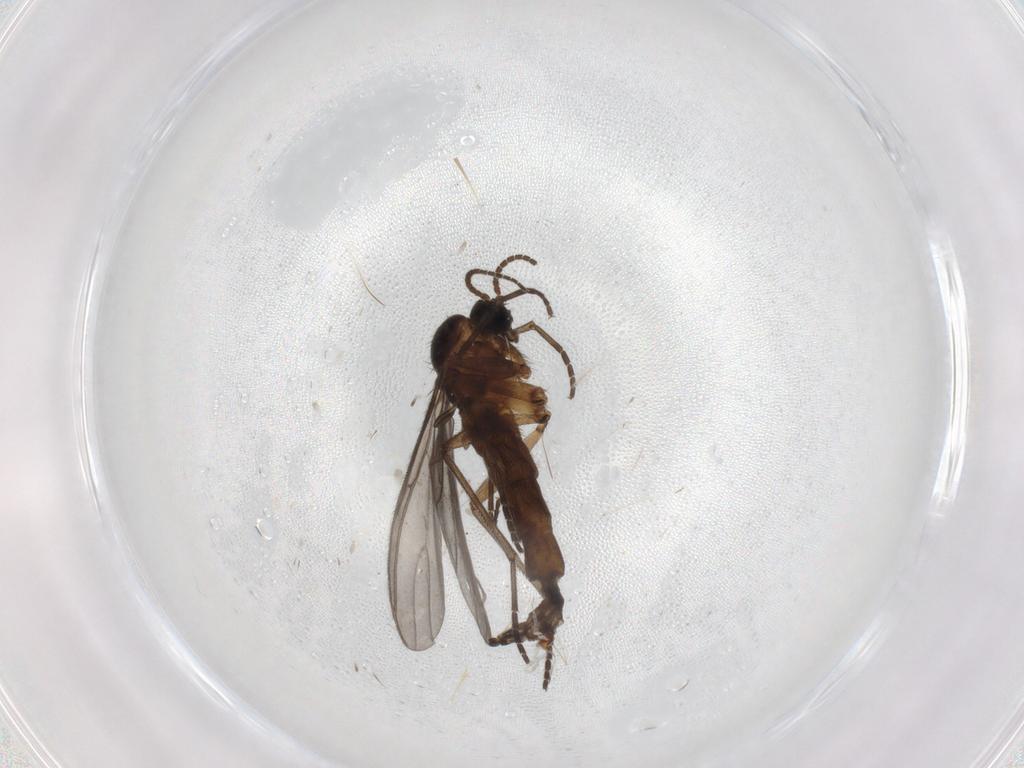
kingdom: Animalia
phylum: Arthropoda
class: Insecta
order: Diptera
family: Sciaridae
